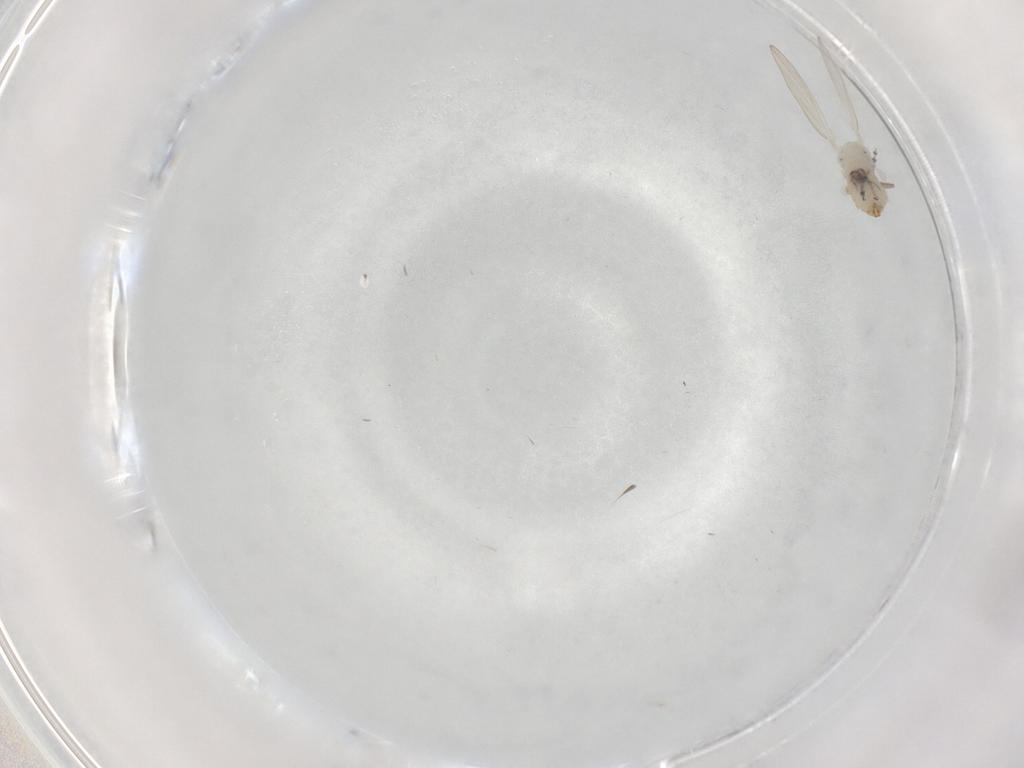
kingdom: Animalia
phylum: Arthropoda
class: Insecta
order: Diptera
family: Psychodidae
